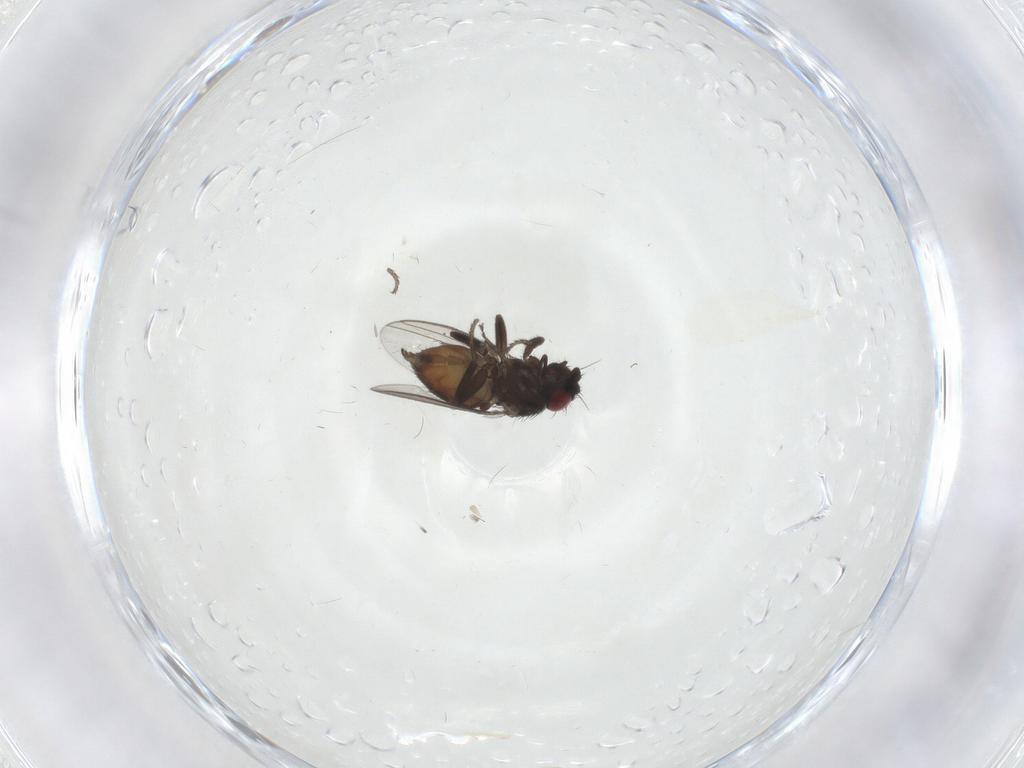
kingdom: Animalia
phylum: Arthropoda
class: Insecta
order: Diptera
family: Milichiidae
